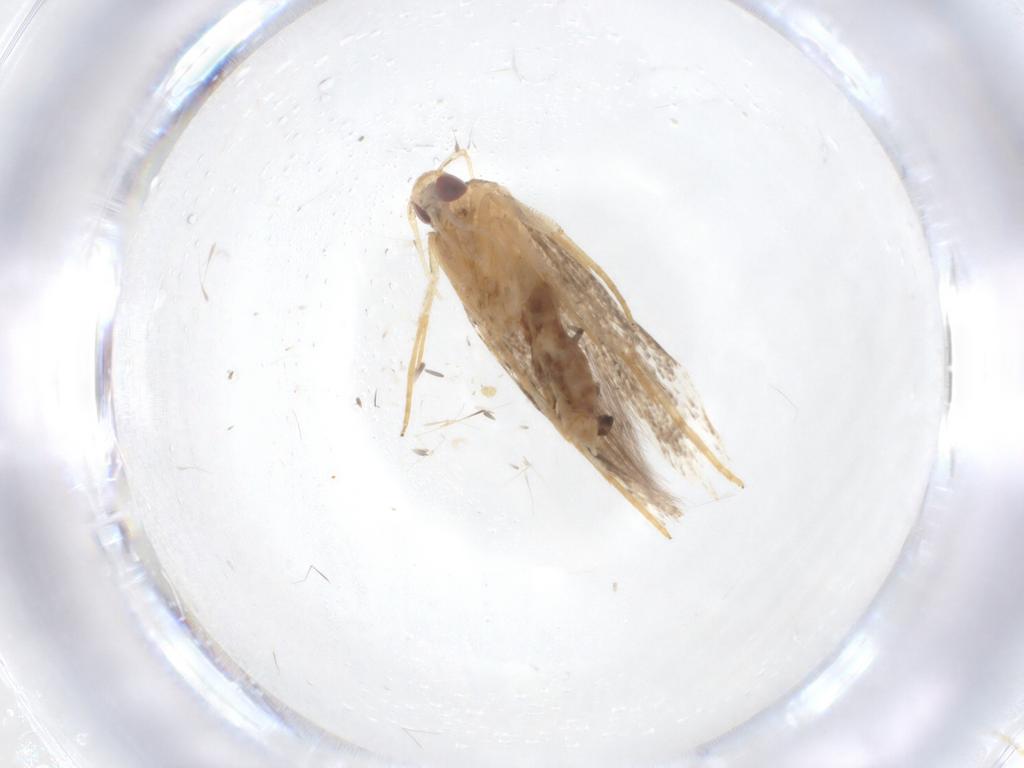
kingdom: Animalia
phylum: Arthropoda
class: Insecta
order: Lepidoptera
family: Cosmopterigidae
